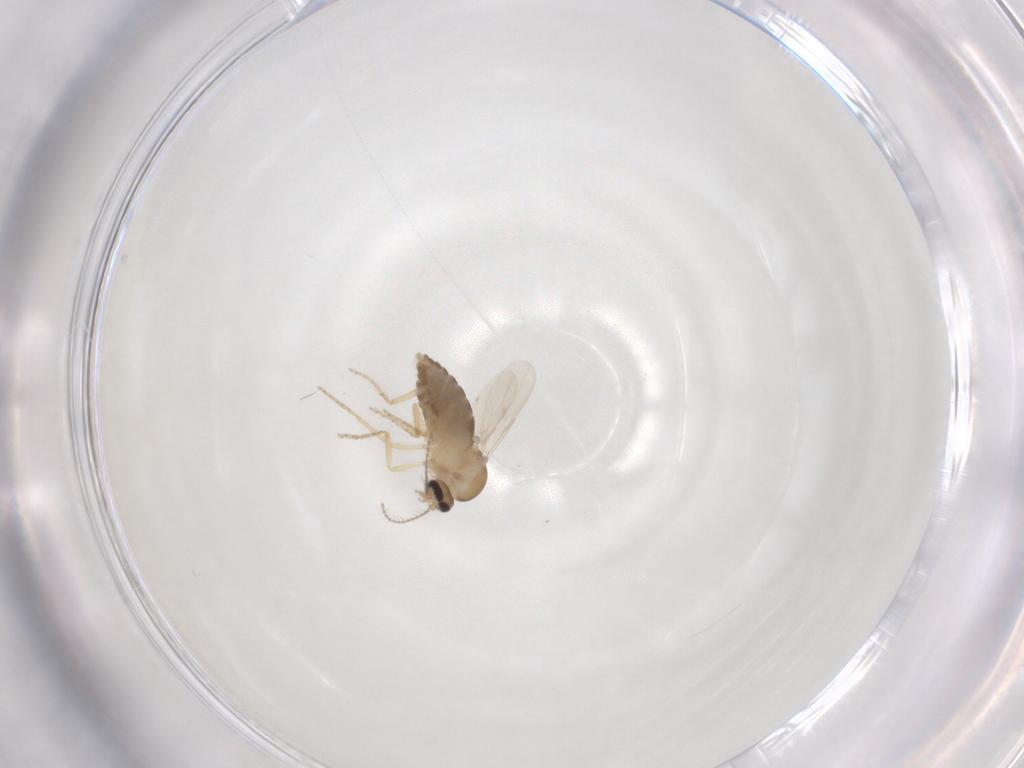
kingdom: Animalia
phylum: Arthropoda
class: Insecta
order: Diptera
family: Ceratopogonidae
